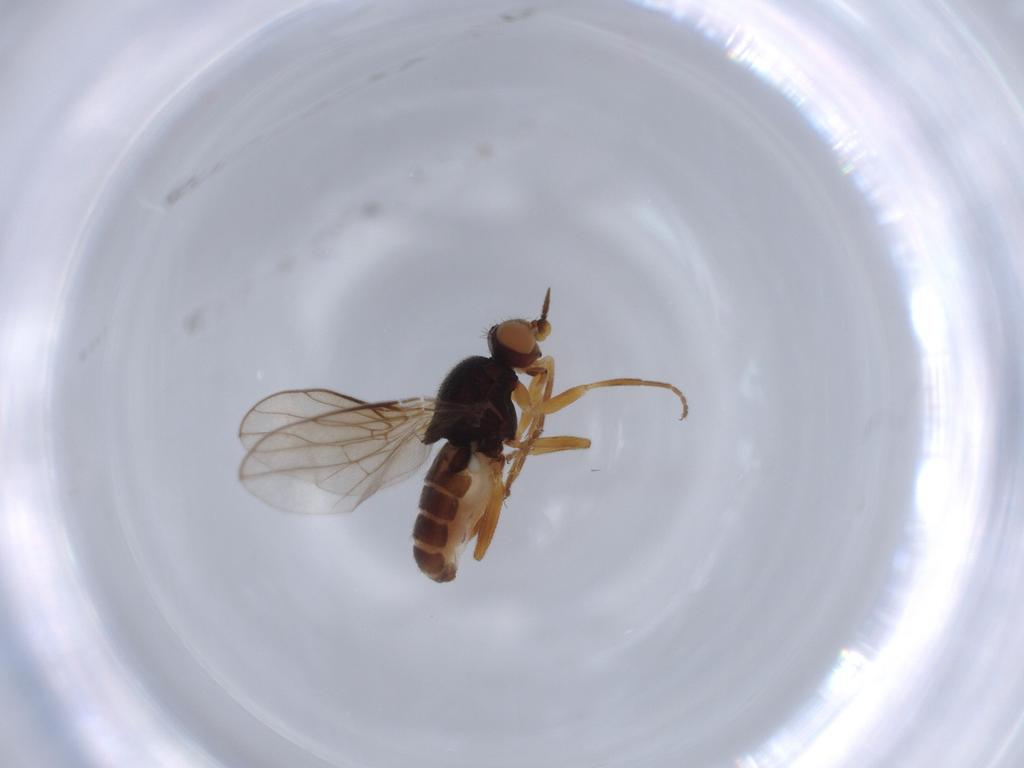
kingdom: Animalia
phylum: Arthropoda
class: Insecta
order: Diptera
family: Chloropidae
